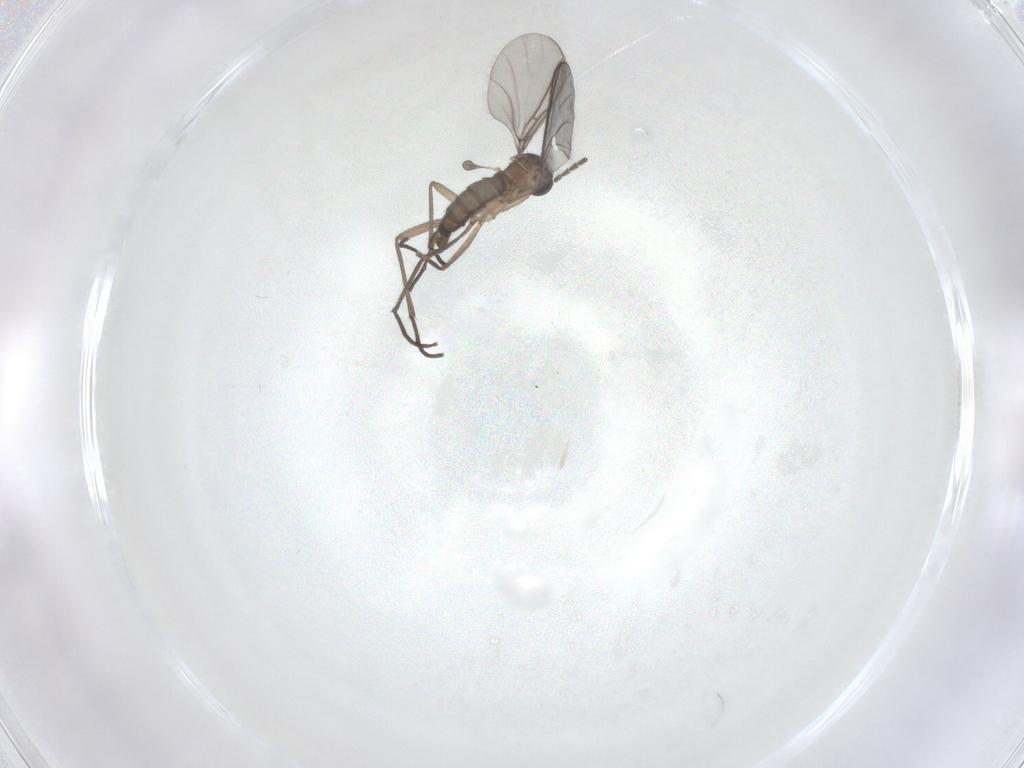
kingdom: Animalia
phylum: Arthropoda
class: Insecta
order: Diptera
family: Sciaridae
